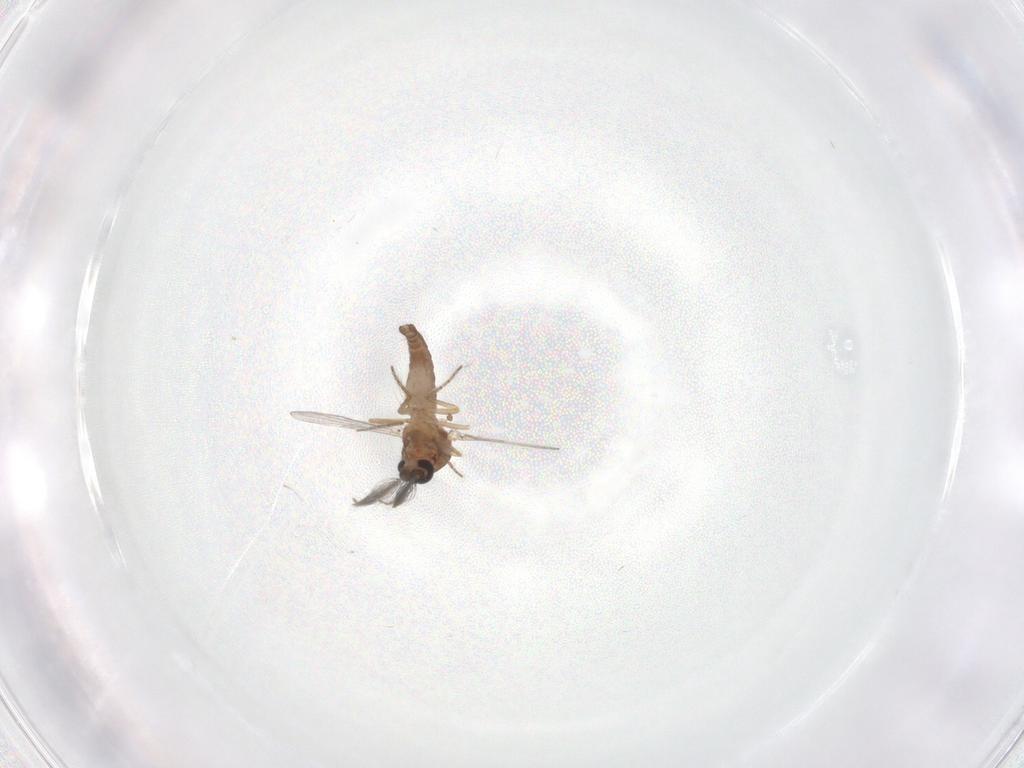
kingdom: Animalia
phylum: Arthropoda
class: Insecta
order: Diptera
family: Ceratopogonidae
